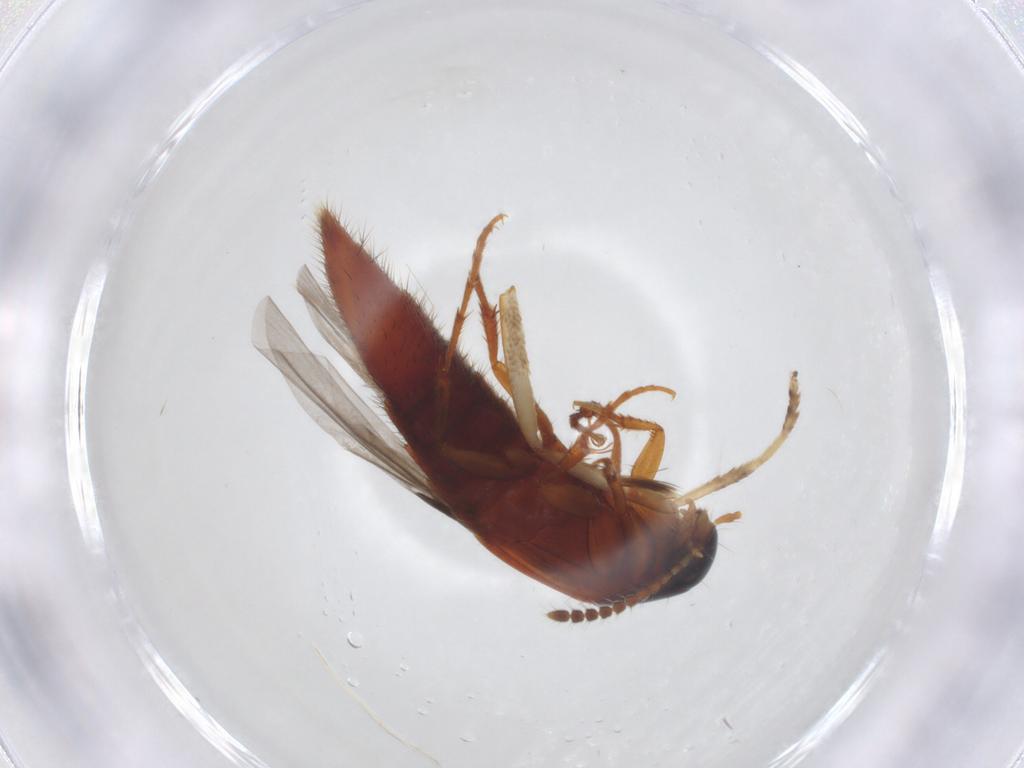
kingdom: Animalia
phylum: Arthropoda
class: Insecta
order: Coleoptera
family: Staphylinidae
